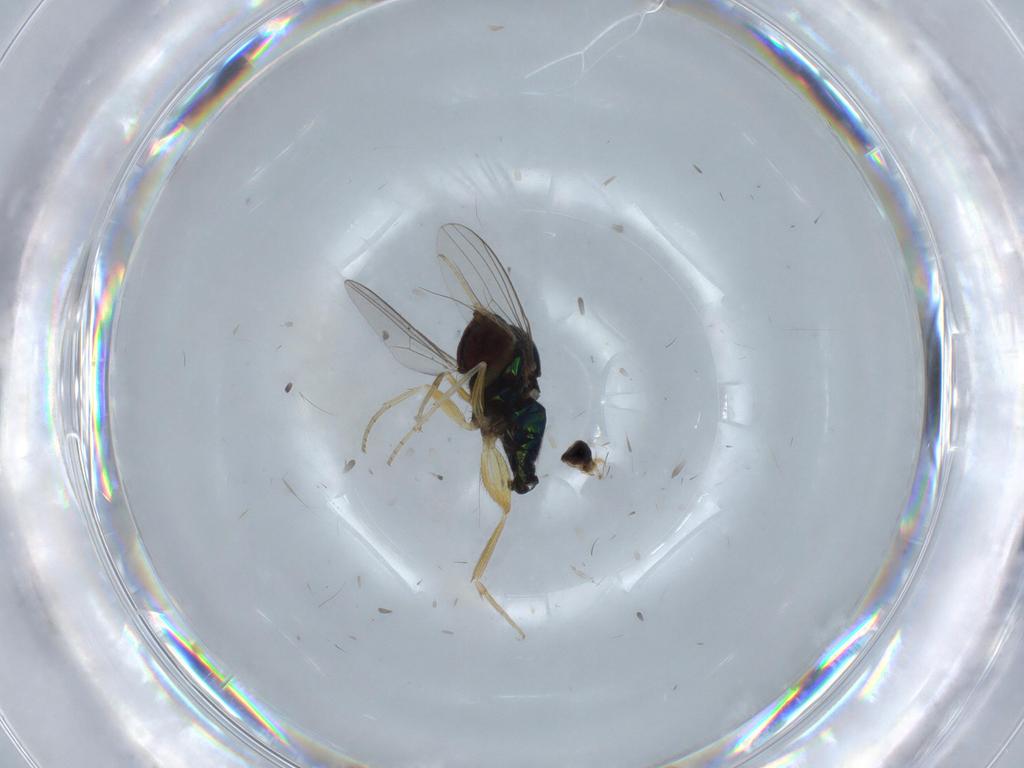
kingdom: Animalia
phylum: Arthropoda
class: Insecta
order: Diptera
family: Dolichopodidae
